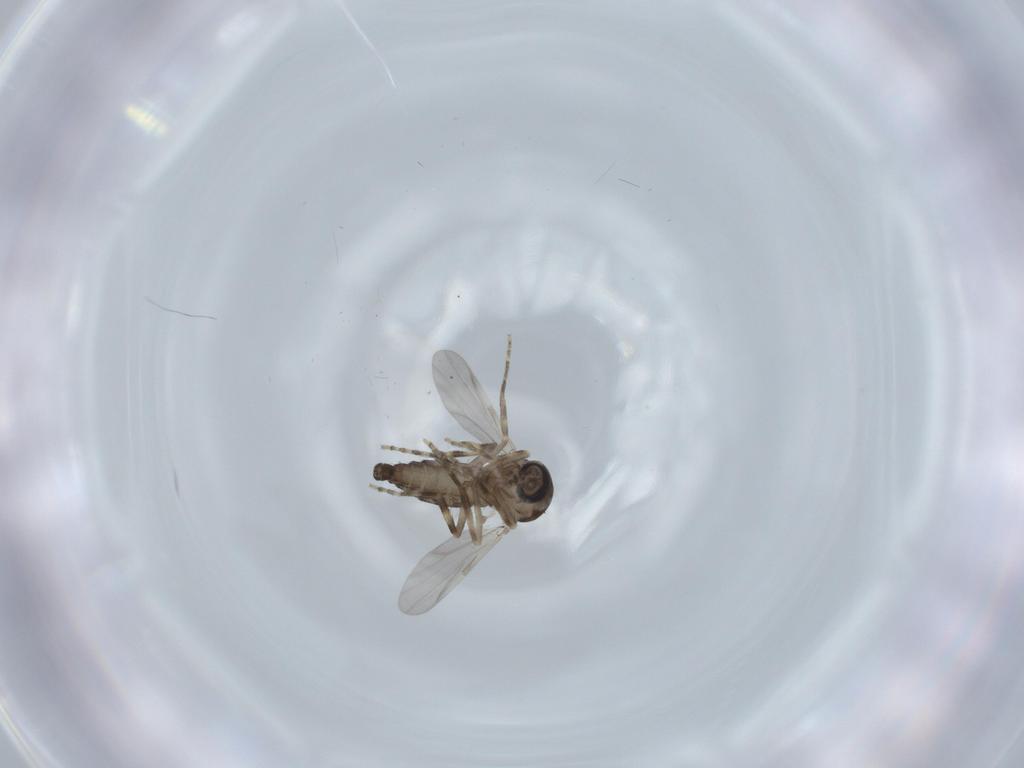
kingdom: Animalia
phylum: Arthropoda
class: Insecta
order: Diptera
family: Ceratopogonidae
